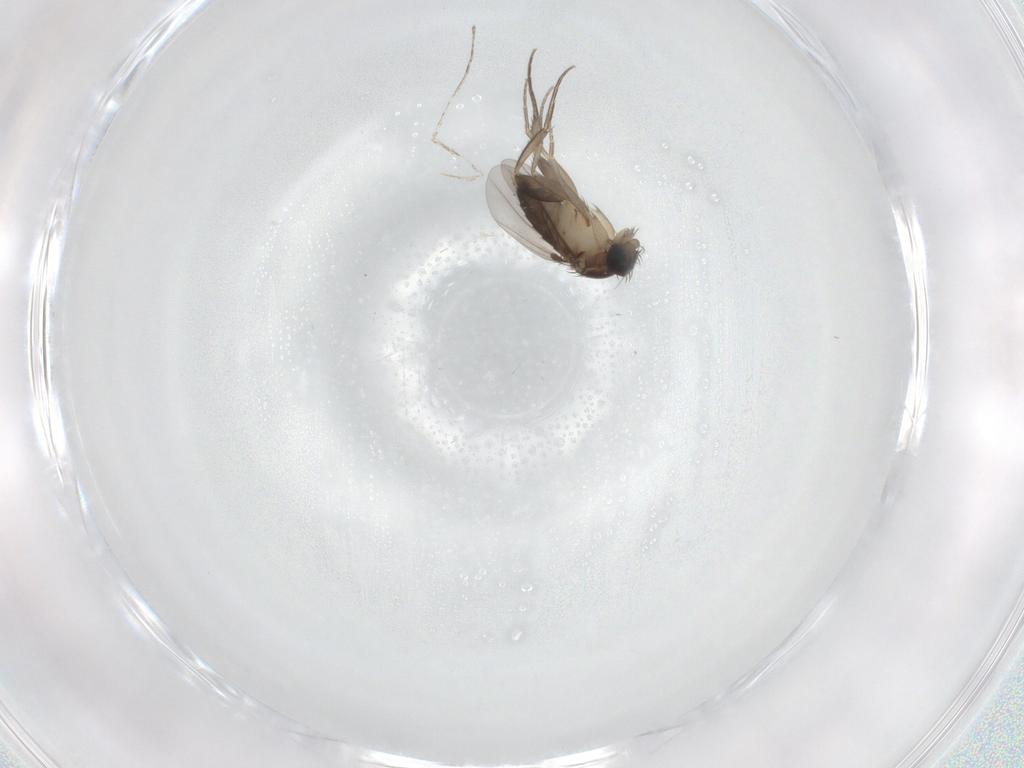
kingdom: Animalia
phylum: Arthropoda
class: Insecta
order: Diptera
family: Phoridae
